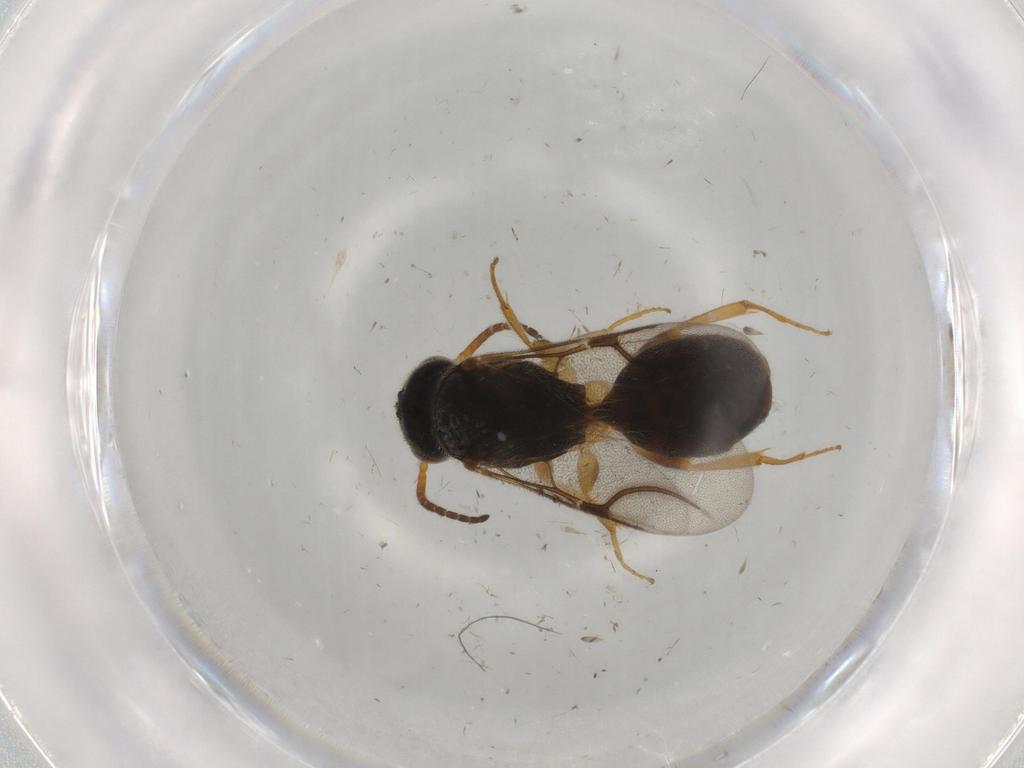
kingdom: Animalia
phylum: Arthropoda
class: Insecta
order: Hymenoptera
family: Bethylidae
